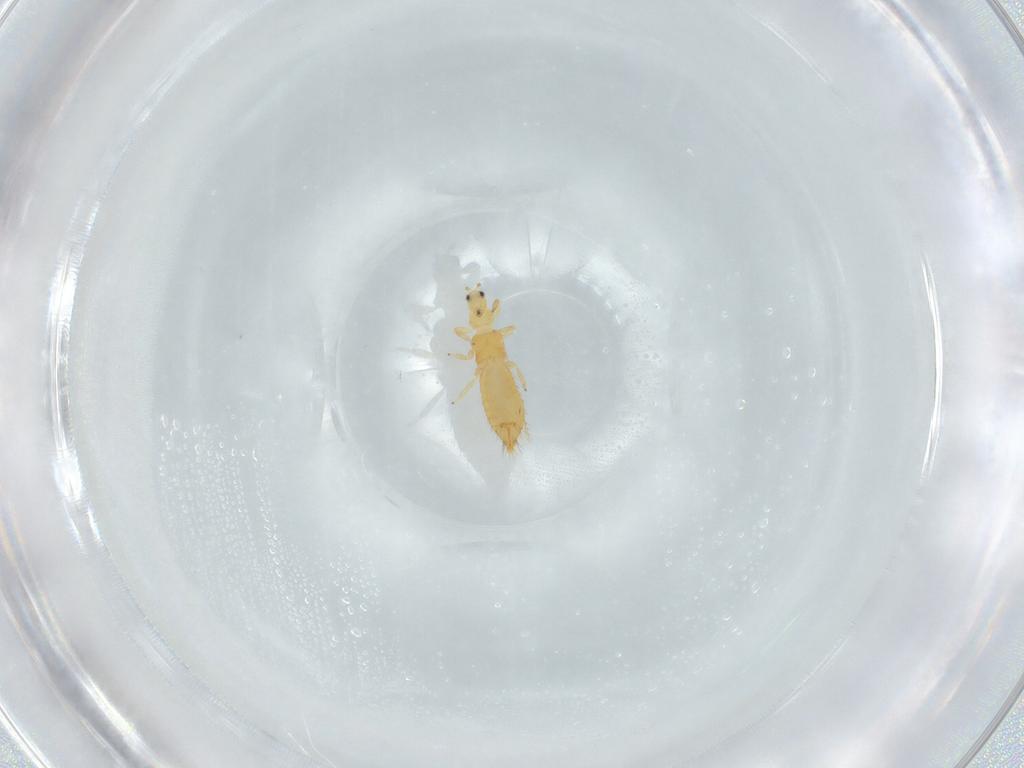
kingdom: Animalia
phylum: Arthropoda
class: Insecta
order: Thysanoptera
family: Thripidae
